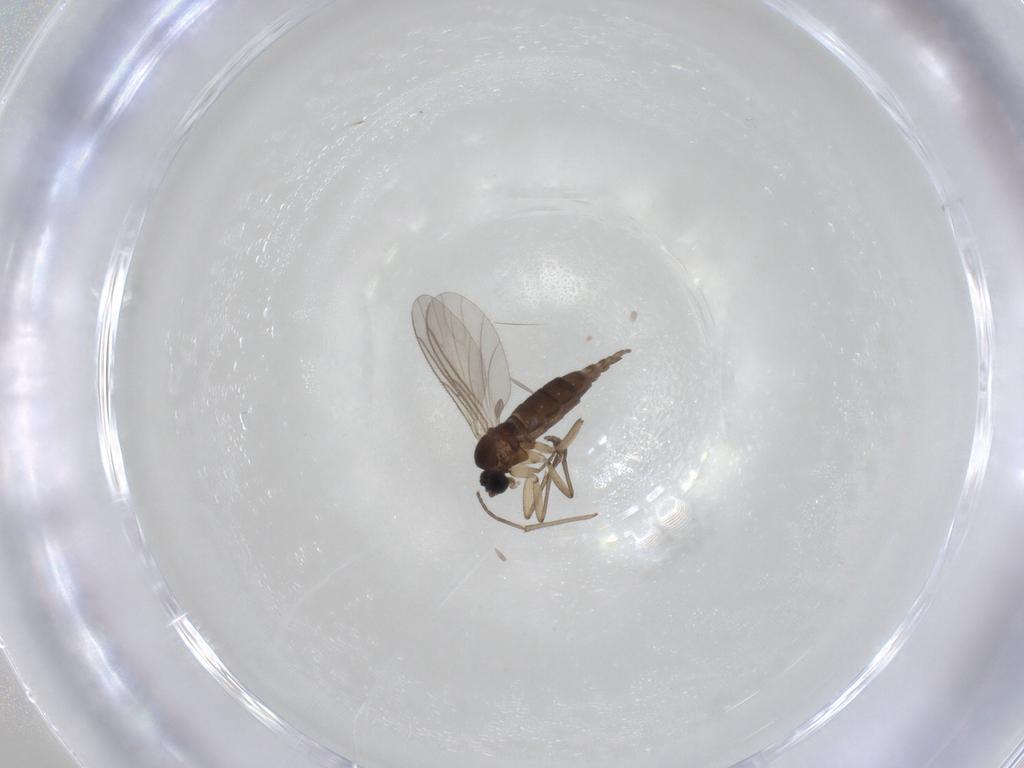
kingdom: Animalia
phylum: Arthropoda
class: Insecta
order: Diptera
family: Sciaridae
